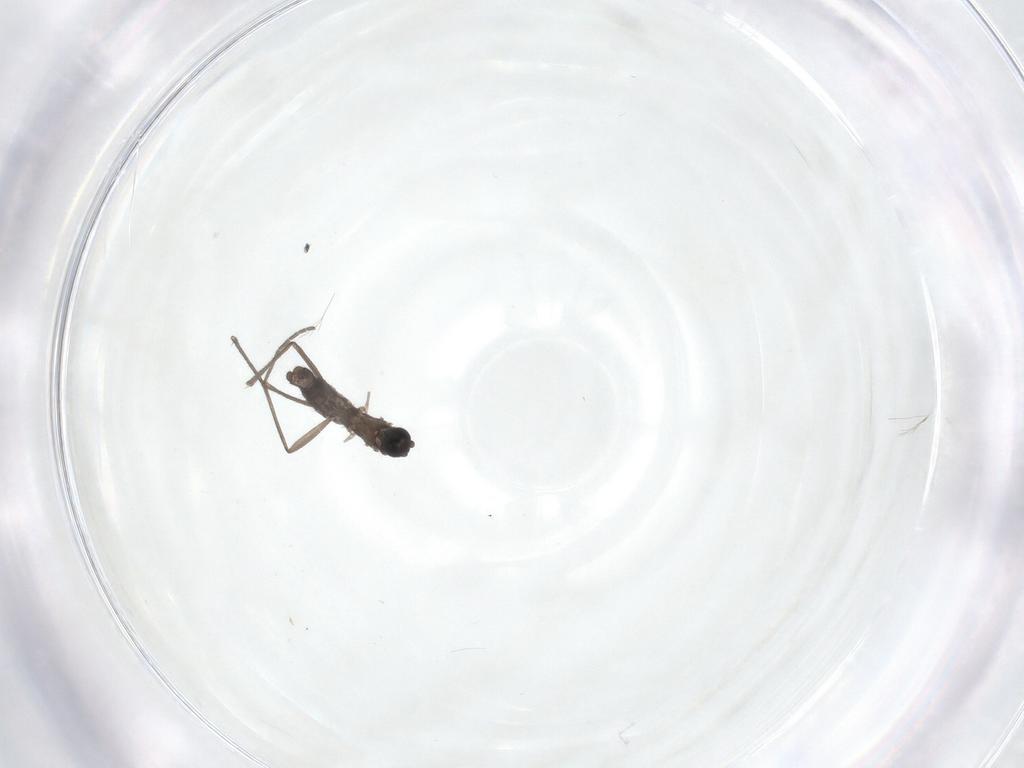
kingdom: Animalia
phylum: Arthropoda
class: Insecta
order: Diptera
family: Sciaridae
